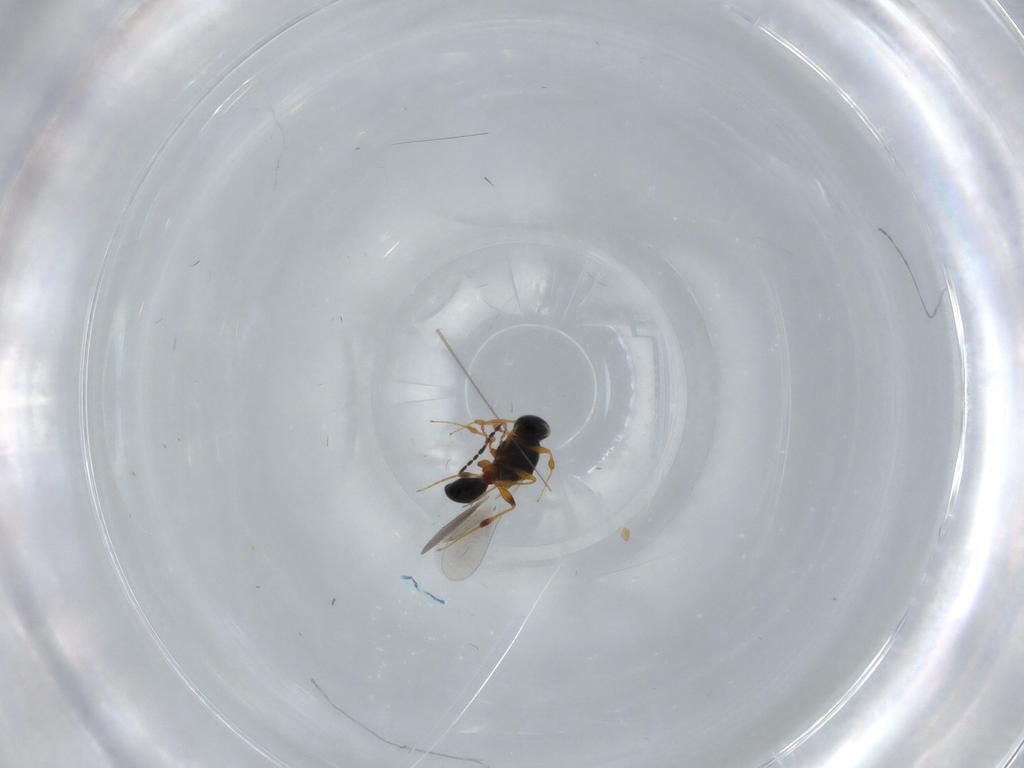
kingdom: Animalia
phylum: Arthropoda
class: Insecta
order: Hymenoptera
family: Platygastridae
